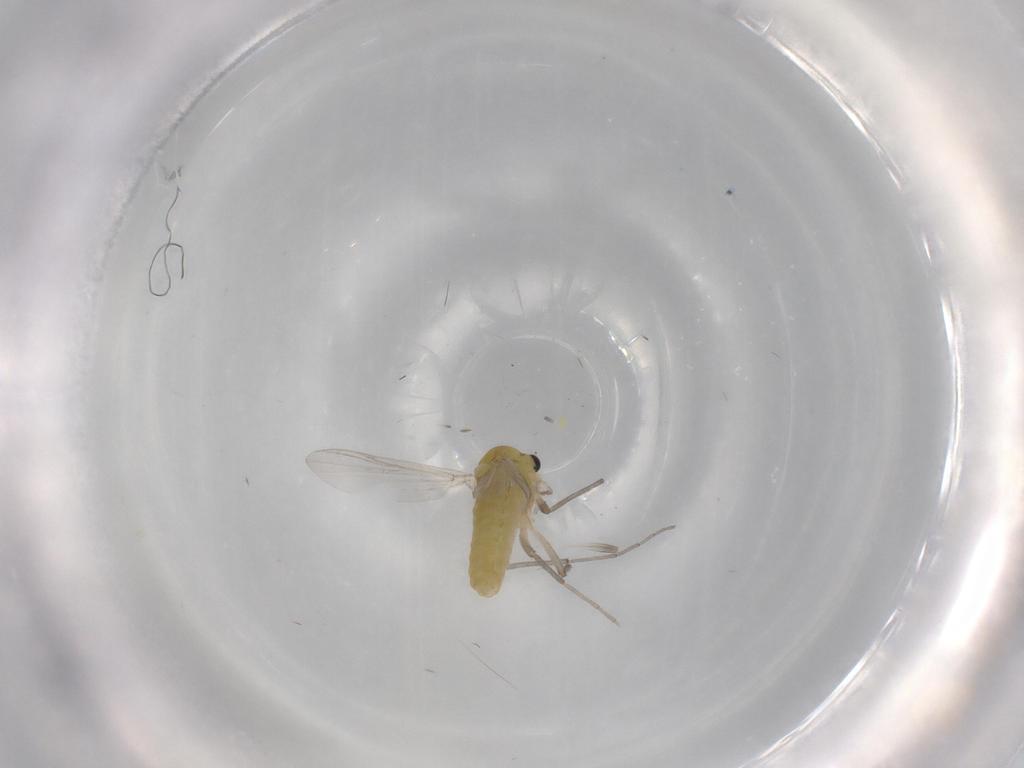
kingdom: Animalia
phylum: Arthropoda
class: Insecta
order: Diptera
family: Chironomidae
